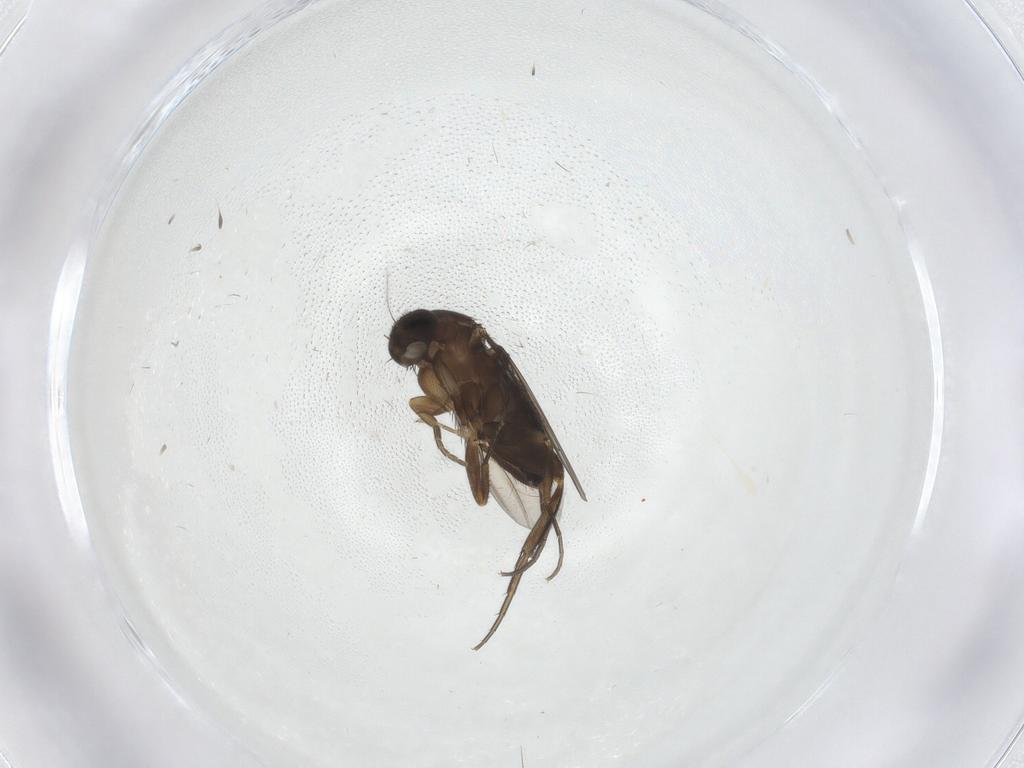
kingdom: Animalia
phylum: Arthropoda
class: Insecta
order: Diptera
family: Phoridae
